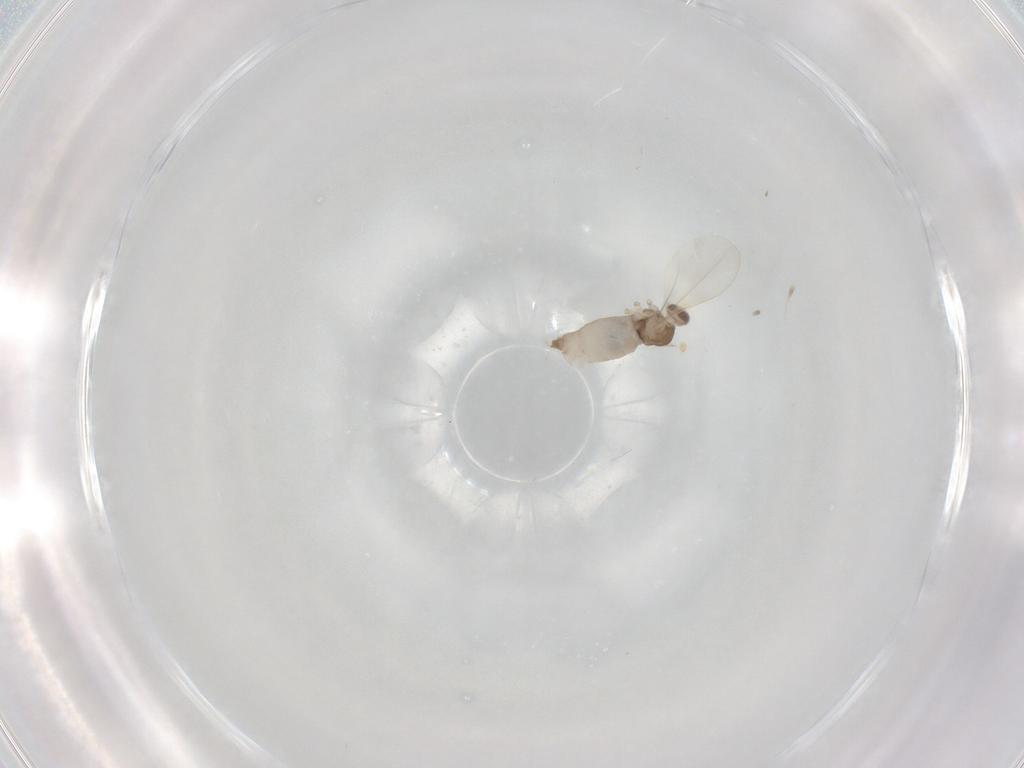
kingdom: Animalia
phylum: Arthropoda
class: Insecta
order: Diptera
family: Cecidomyiidae
